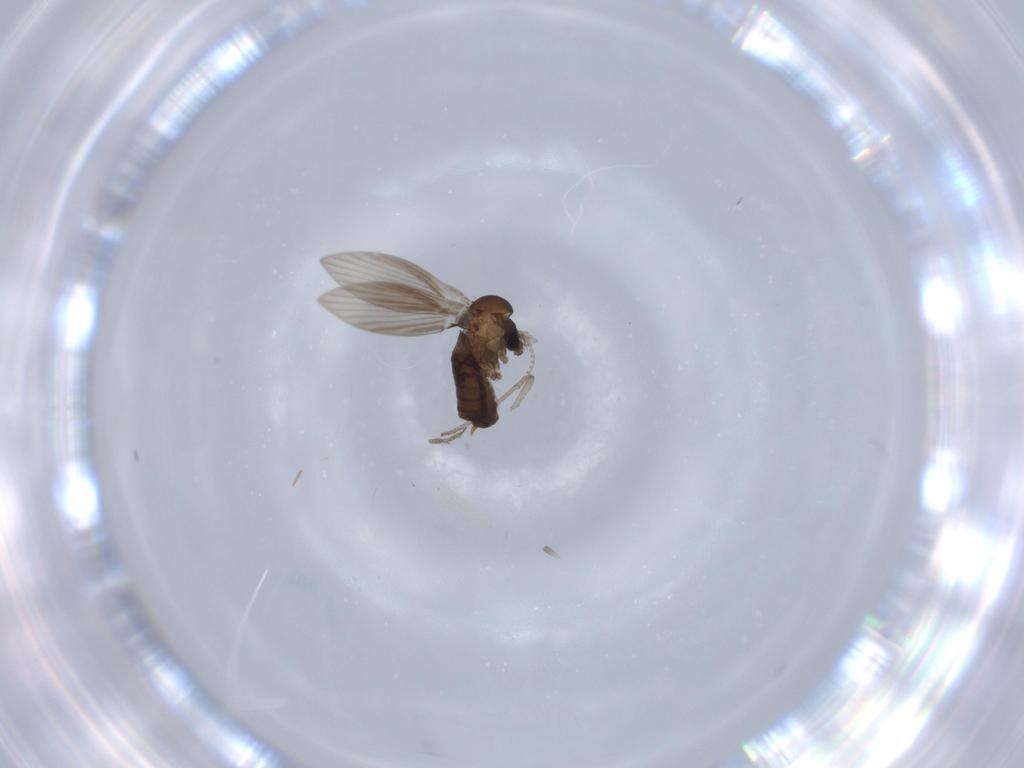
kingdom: Animalia
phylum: Arthropoda
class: Insecta
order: Diptera
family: Psychodidae
